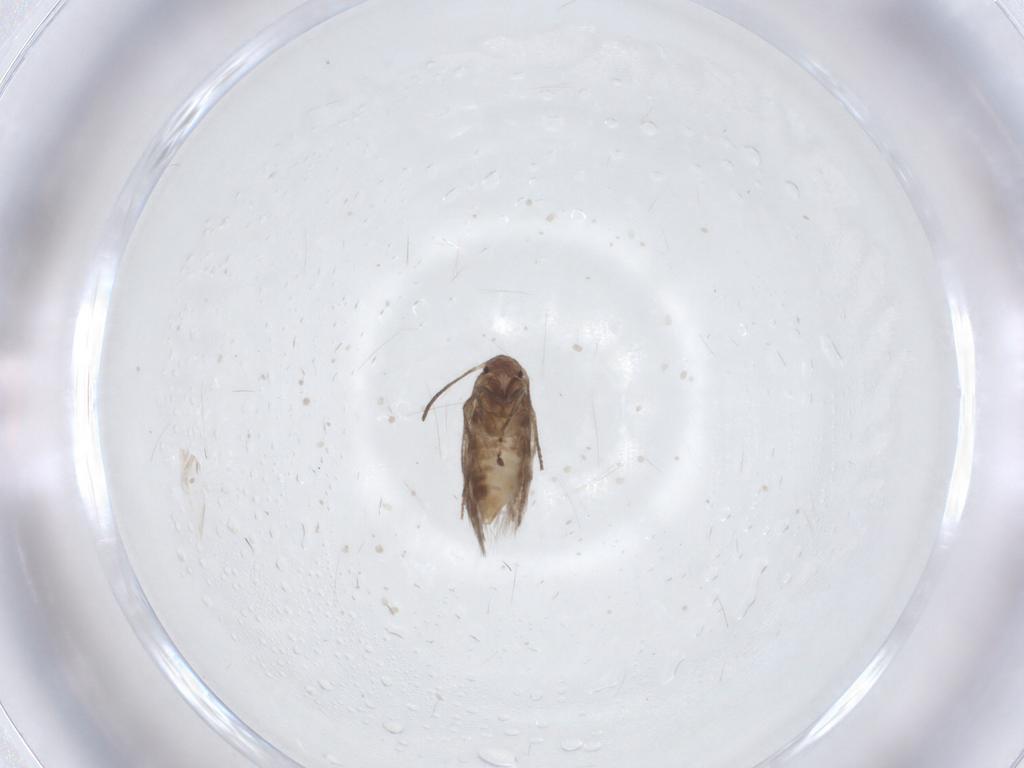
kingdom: Animalia
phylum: Arthropoda
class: Insecta
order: Lepidoptera
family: Lyonetiidae
